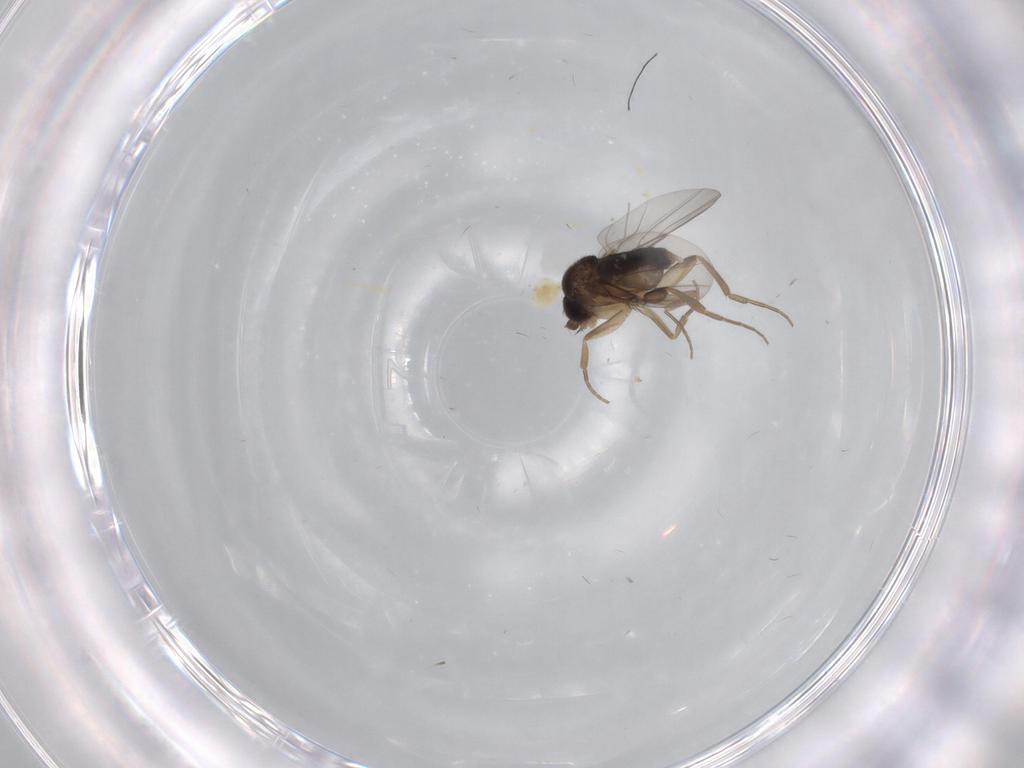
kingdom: Animalia
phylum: Arthropoda
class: Insecta
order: Diptera
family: Phoridae
